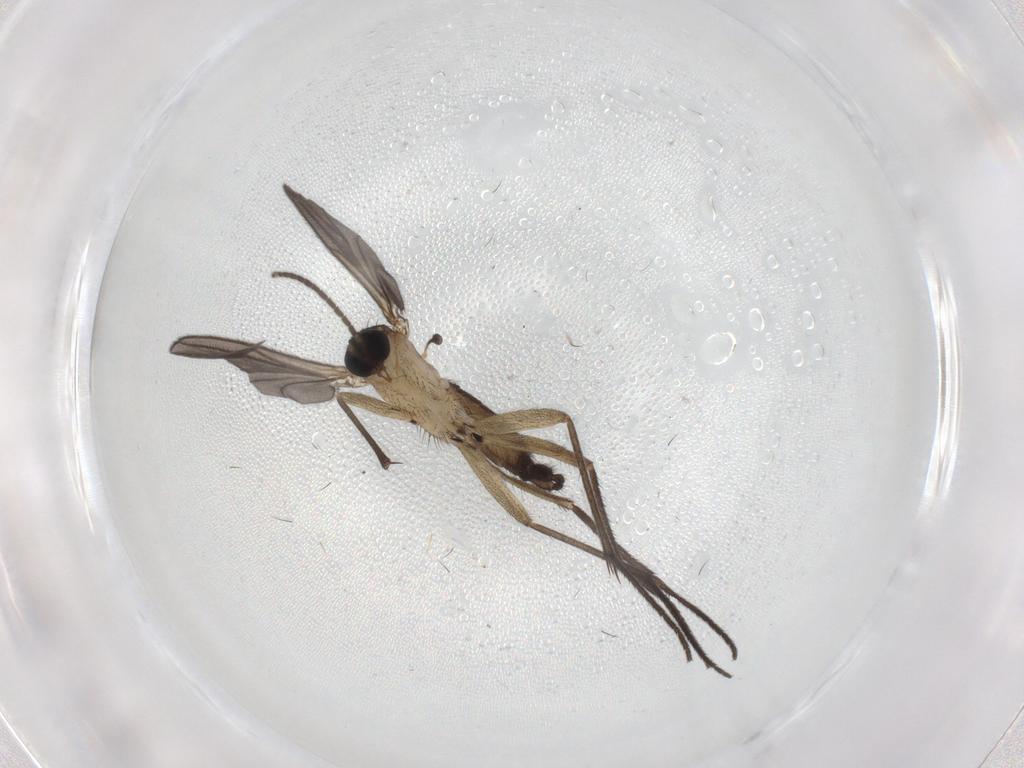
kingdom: Animalia
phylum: Arthropoda
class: Insecta
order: Diptera
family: Sciaridae
